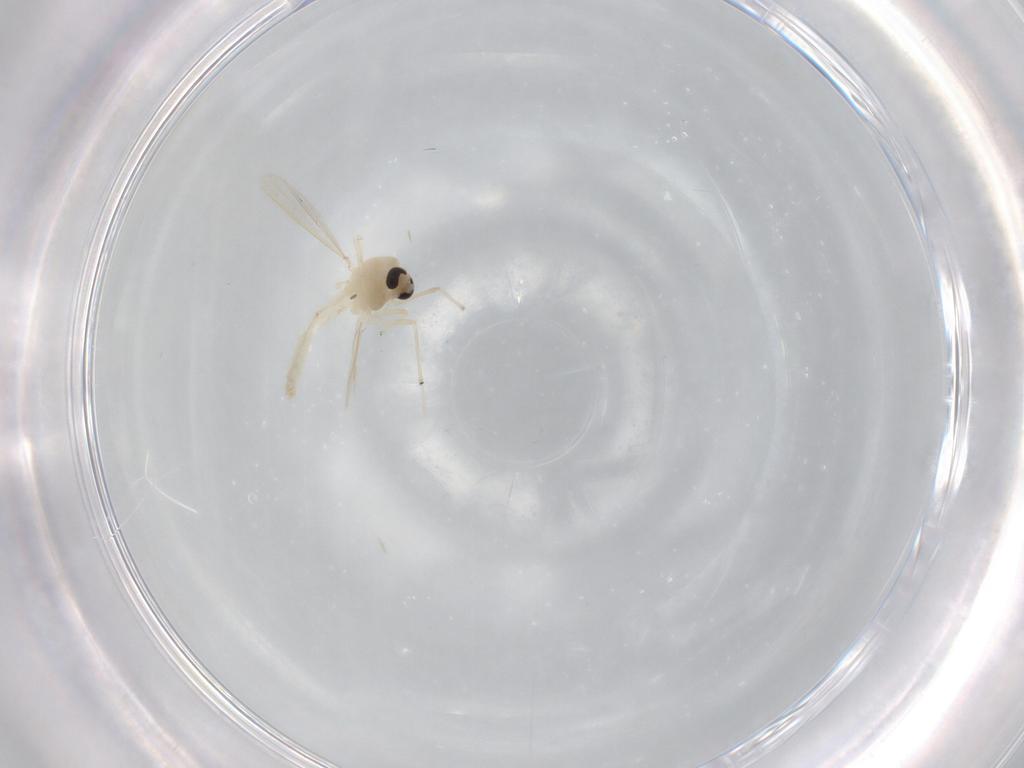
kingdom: Animalia
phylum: Arthropoda
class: Insecta
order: Diptera
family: Chironomidae
